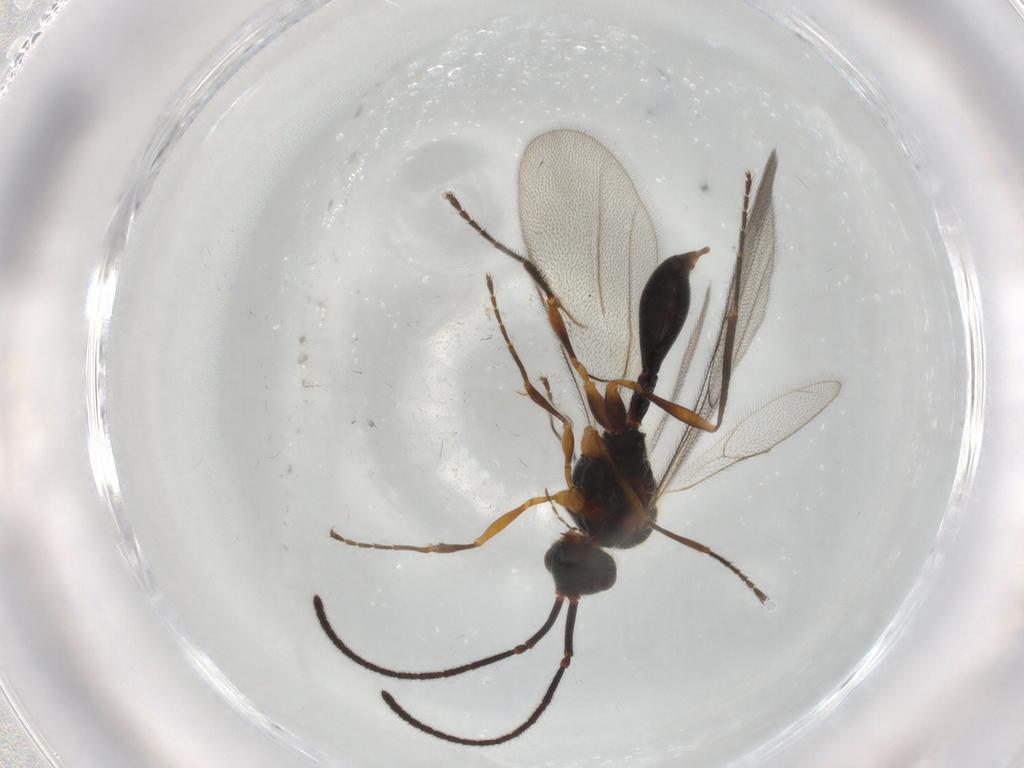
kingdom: Animalia
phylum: Arthropoda
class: Insecta
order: Hymenoptera
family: Diapriidae
